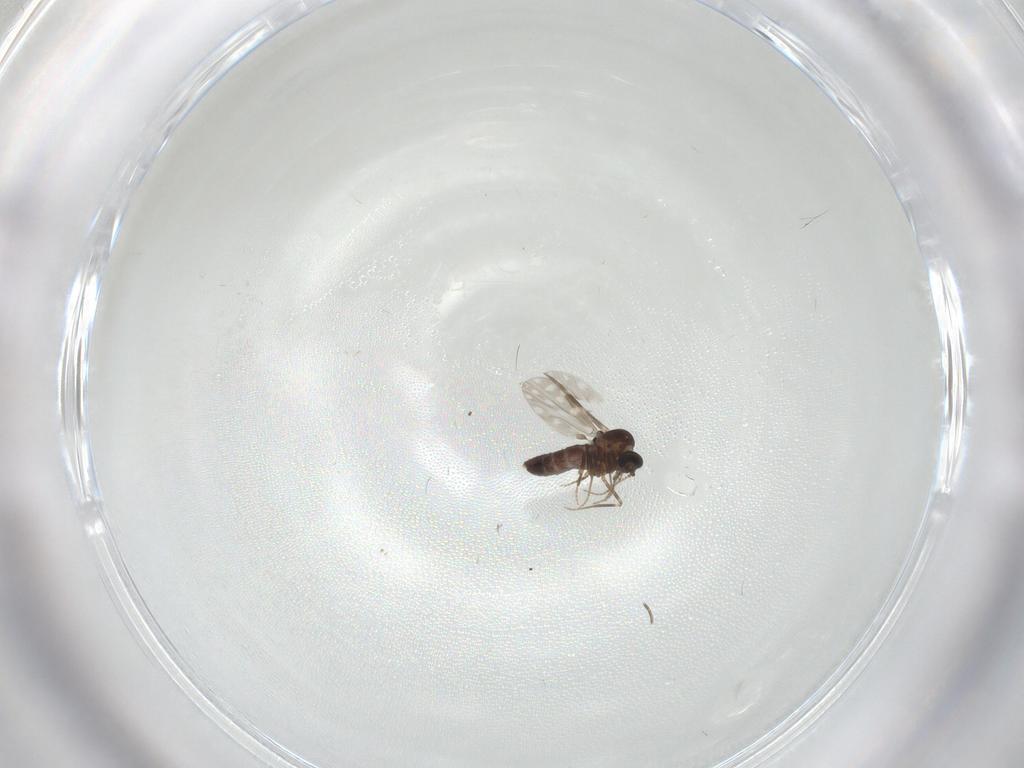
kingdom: Animalia
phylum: Arthropoda
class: Insecta
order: Diptera
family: Ceratopogonidae
